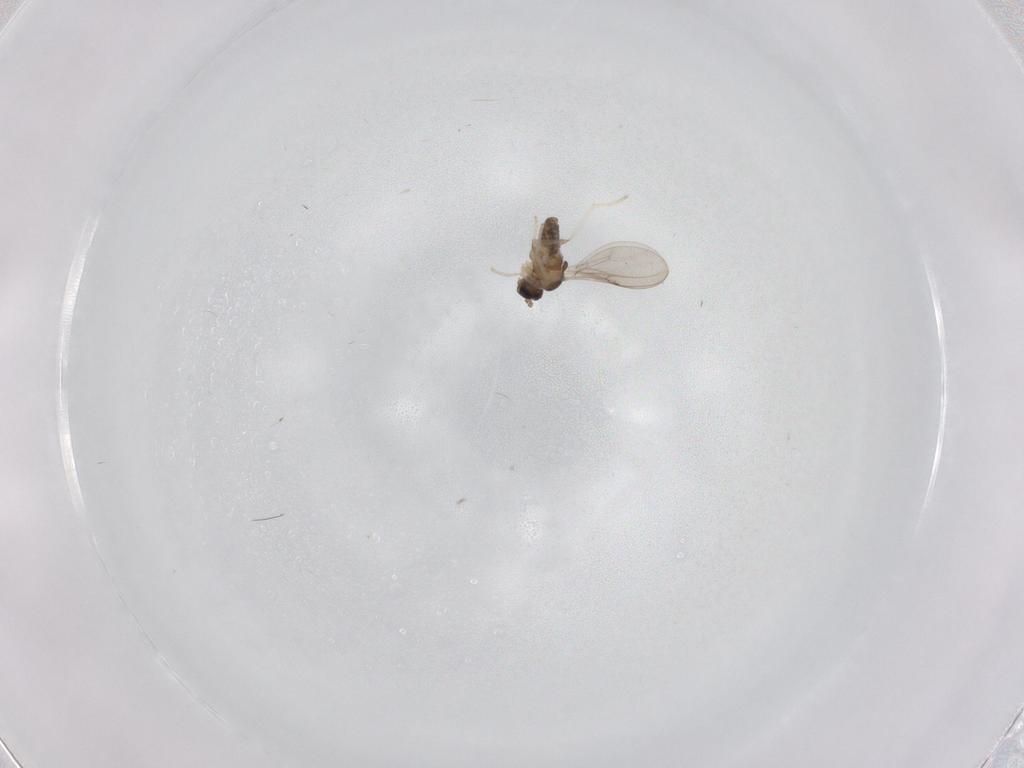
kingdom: Animalia
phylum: Arthropoda
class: Insecta
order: Diptera
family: Cecidomyiidae
